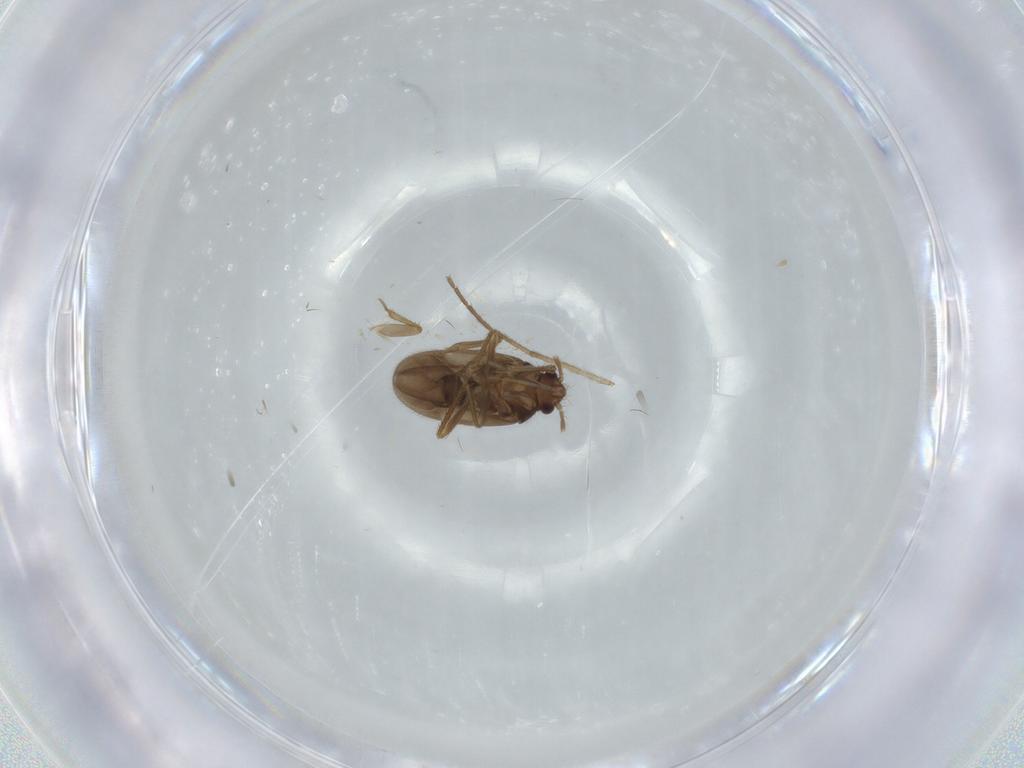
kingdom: Animalia
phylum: Arthropoda
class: Insecta
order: Hemiptera
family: Ceratocombidae
